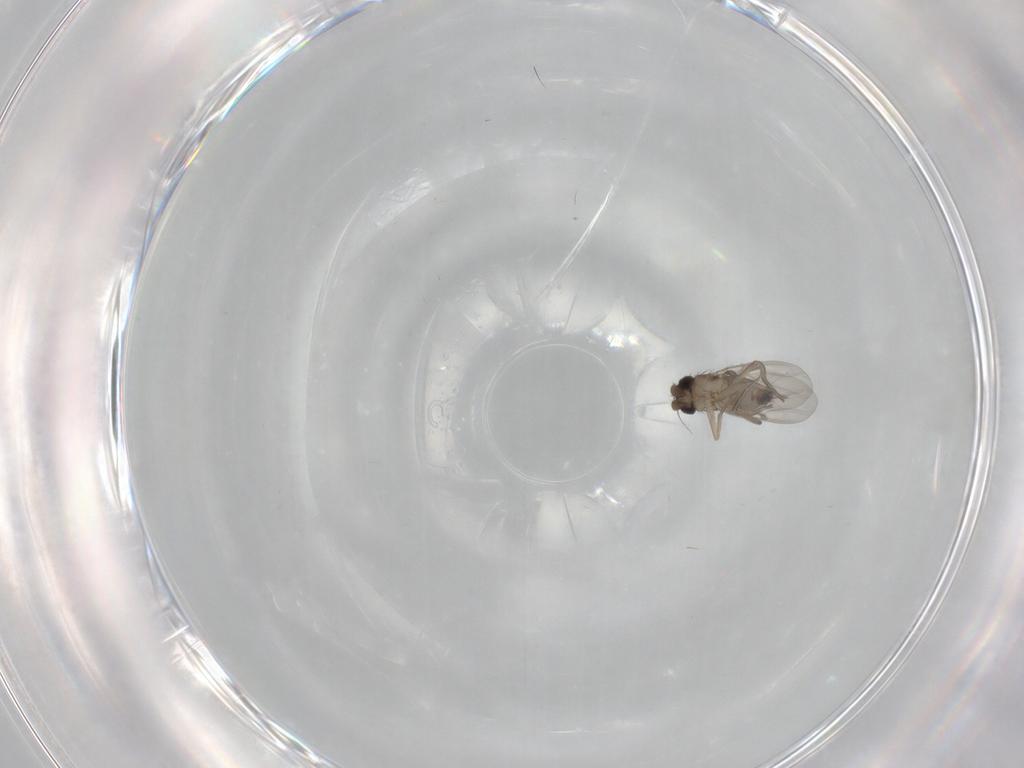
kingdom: Animalia
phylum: Arthropoda
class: Insecta
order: Diptera
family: Phoridae
